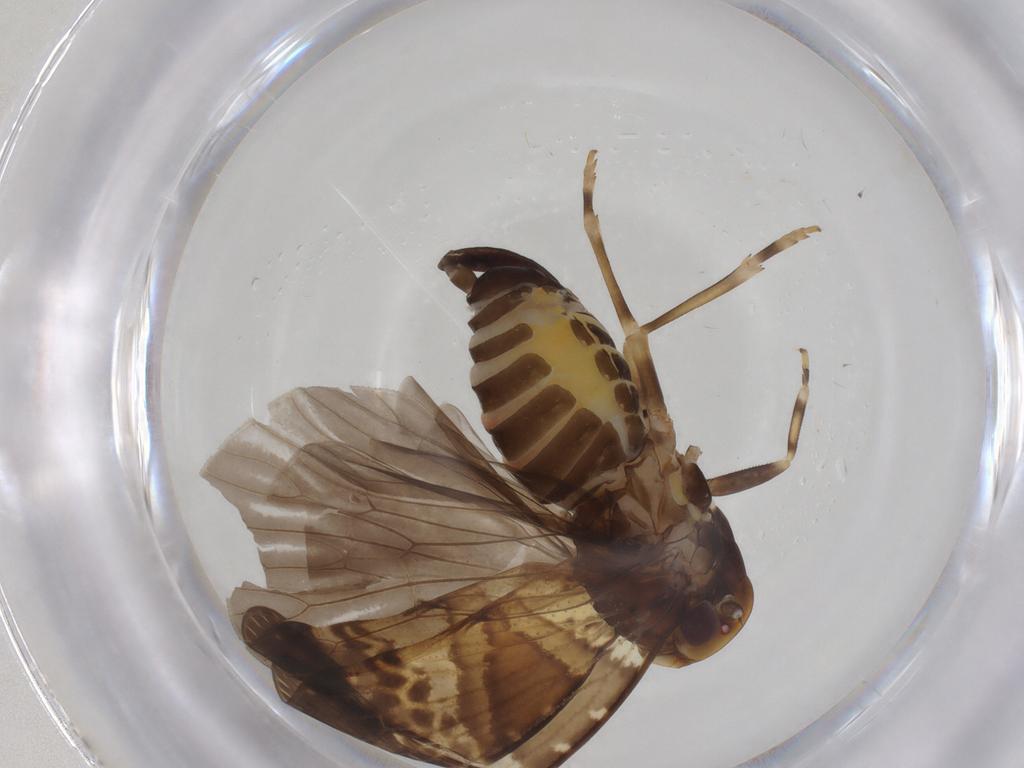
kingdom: Animalia
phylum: Arthropoda
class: Insecta
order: Hemiptera
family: Cixiidae
